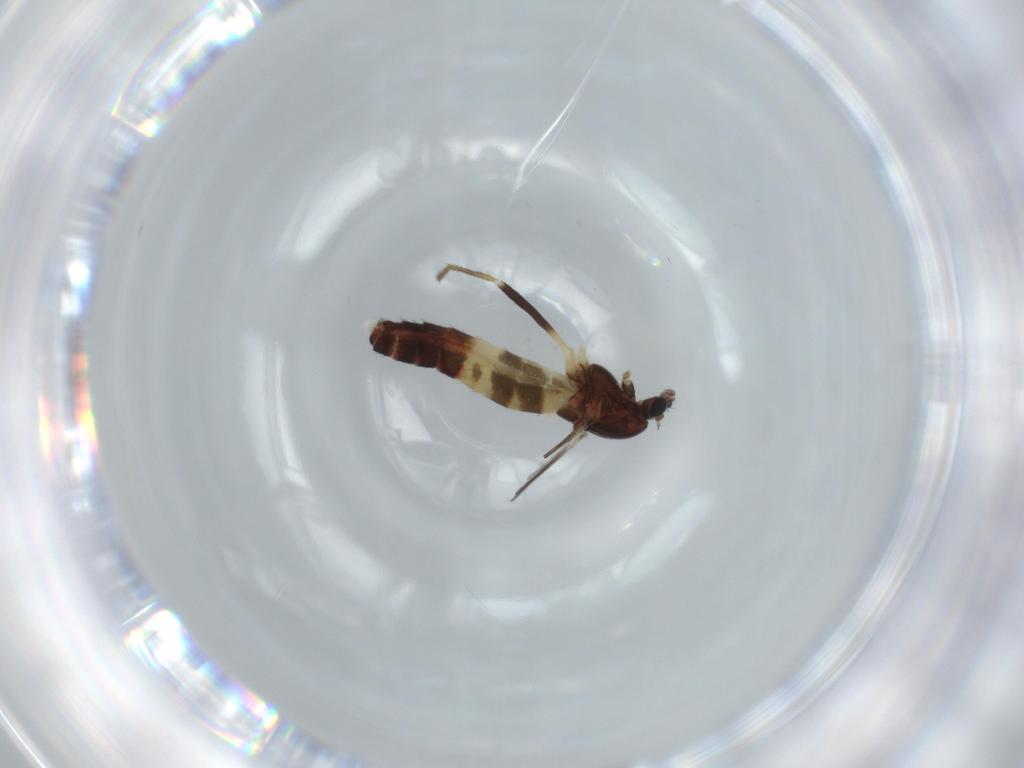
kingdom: Animalia
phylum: Arthropoda
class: Insecta
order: Diptera
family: Chironomidae
